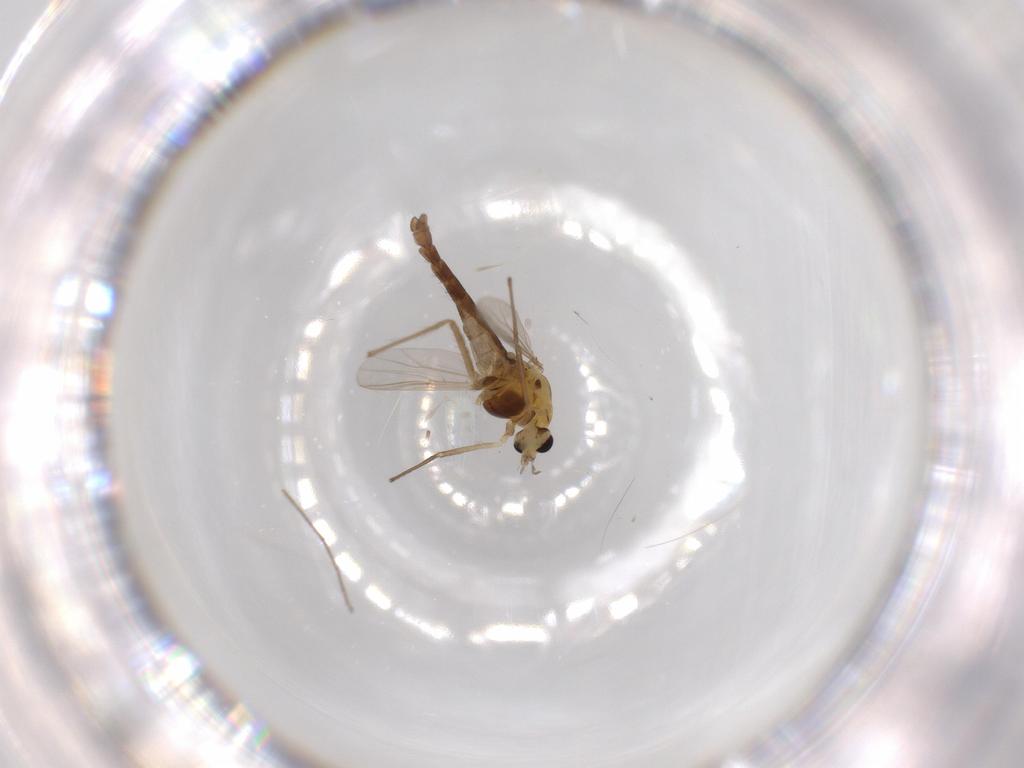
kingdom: Animalia
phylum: Arthropoda
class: Insecta
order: Diptera
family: Chironomidae
